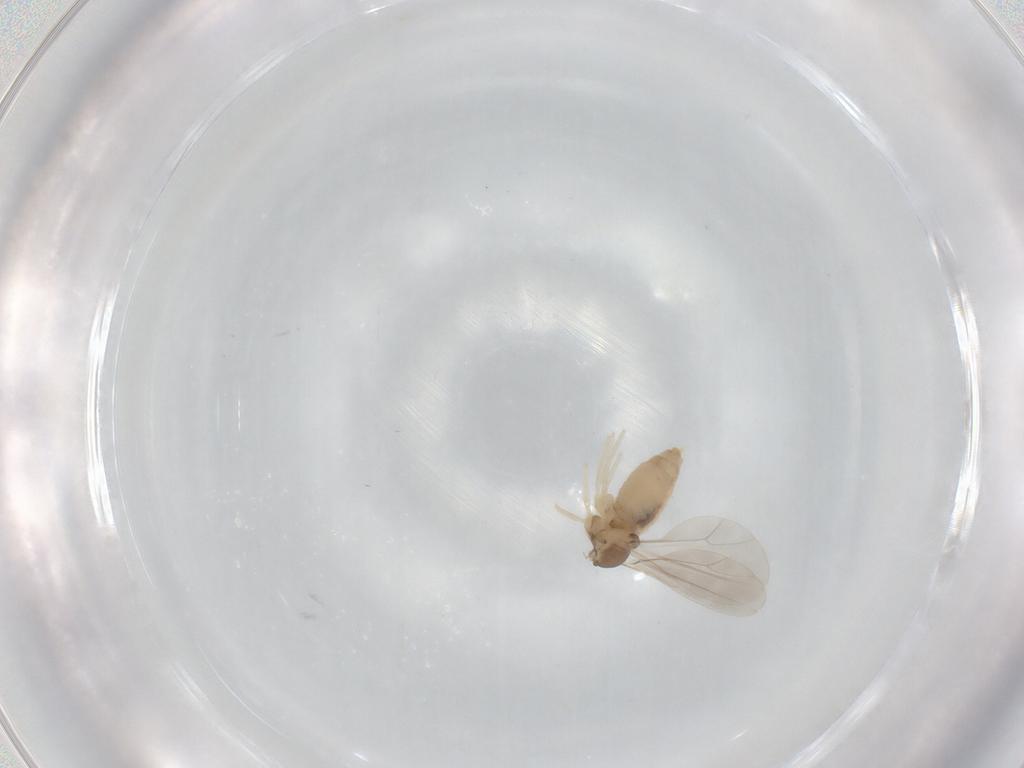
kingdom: Animalia
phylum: Arthropoda
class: Insecta
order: Diptera
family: Cecidomyiidae
